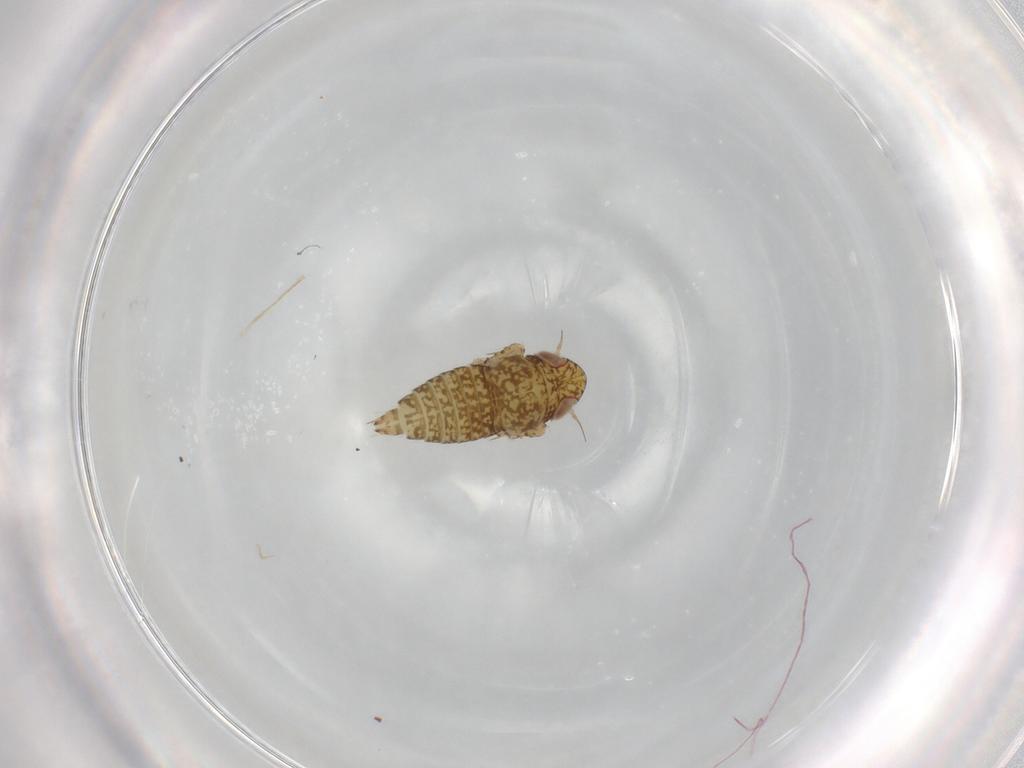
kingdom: Animalia
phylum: Arthropoda
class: Insecta
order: Hemiptera
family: Cicadellidae
